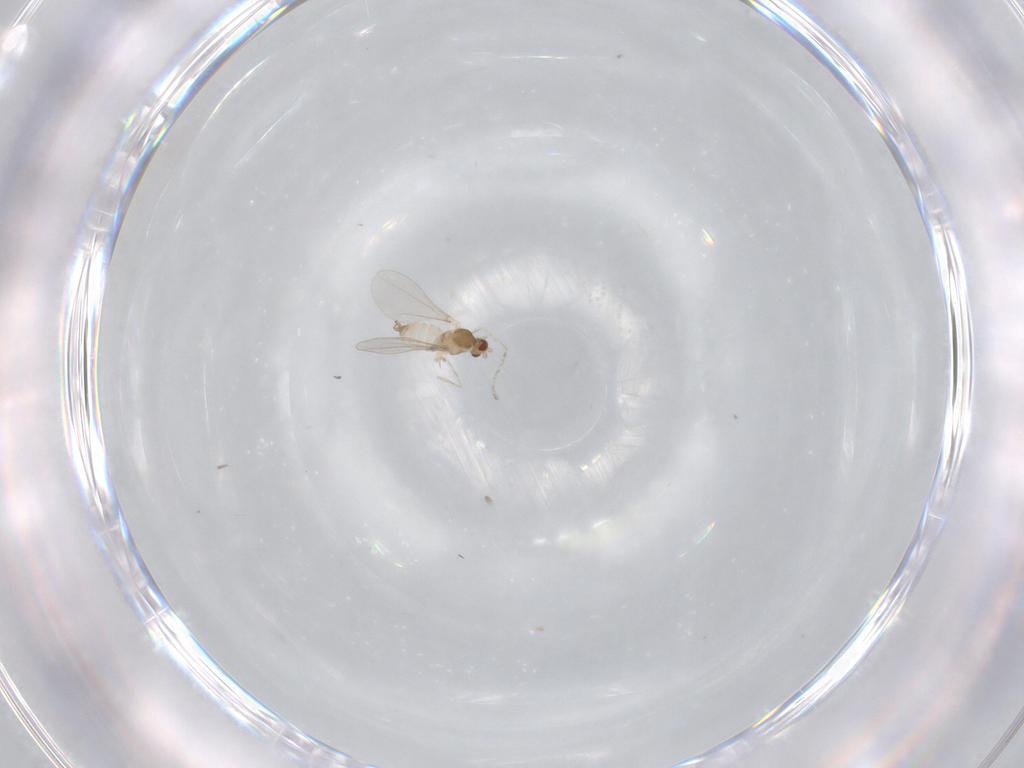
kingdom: Animalia
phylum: Arthropoda
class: Insecta
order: Diptera
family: Cecidomyiidae
